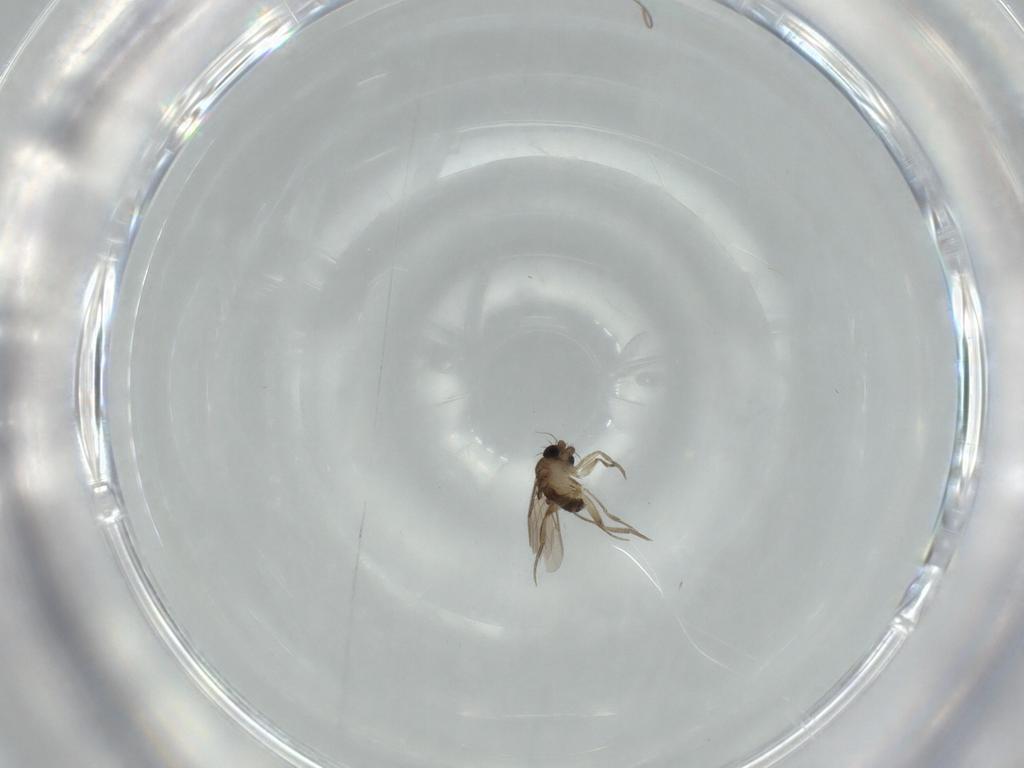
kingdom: Animalia
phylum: Arthropoda
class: Insecta
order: Diptera
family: Phoridae
